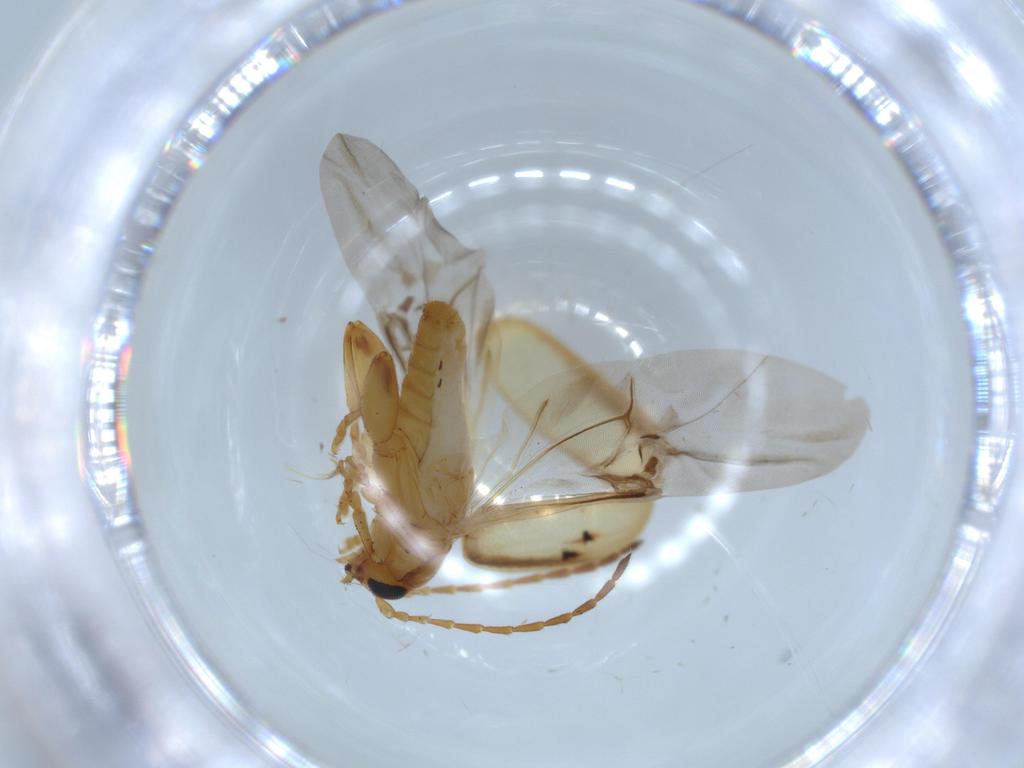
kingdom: Animalia
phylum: Arthropoda
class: Insecta
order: Coleoptera
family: Chrysomelidae
